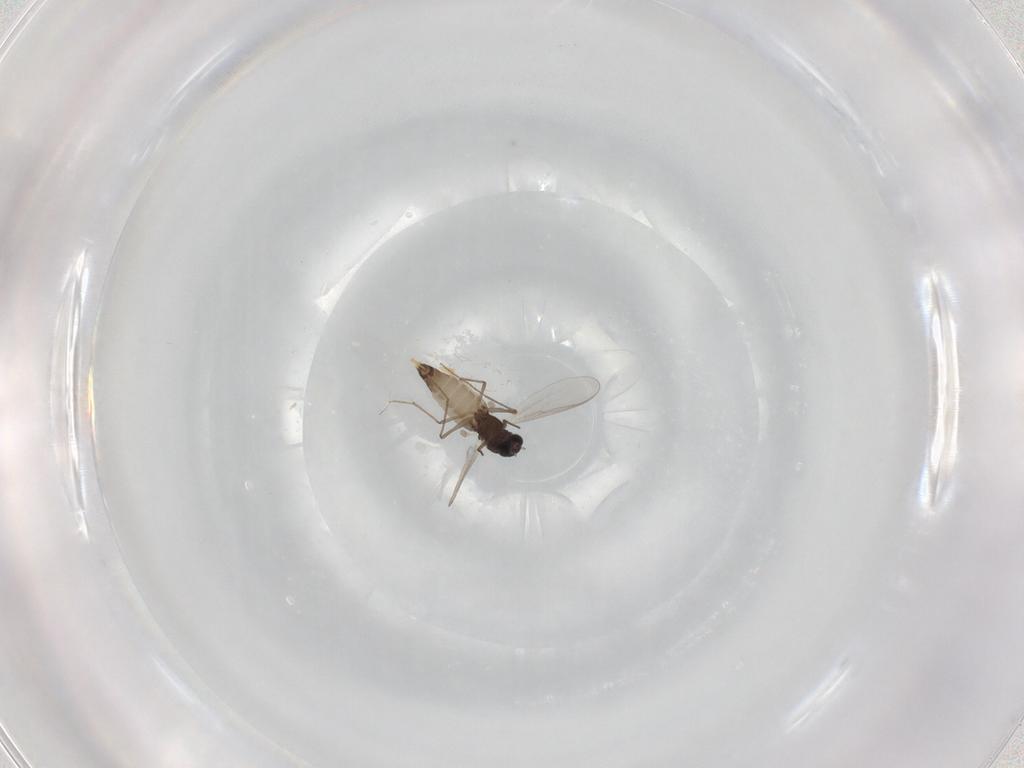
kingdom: Animalia
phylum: Arthropoda
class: Insecta
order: Diptera
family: Chironomidae
